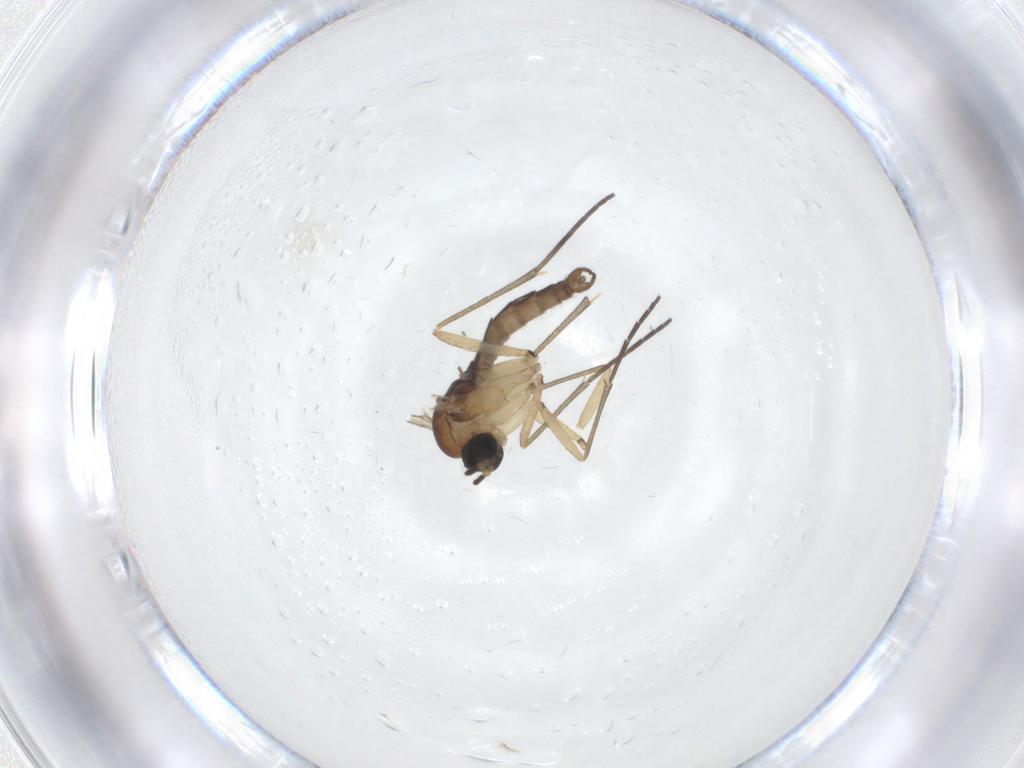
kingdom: Animalia
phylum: Arthropoda
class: Insecta
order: Diptera
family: Sciaridae
